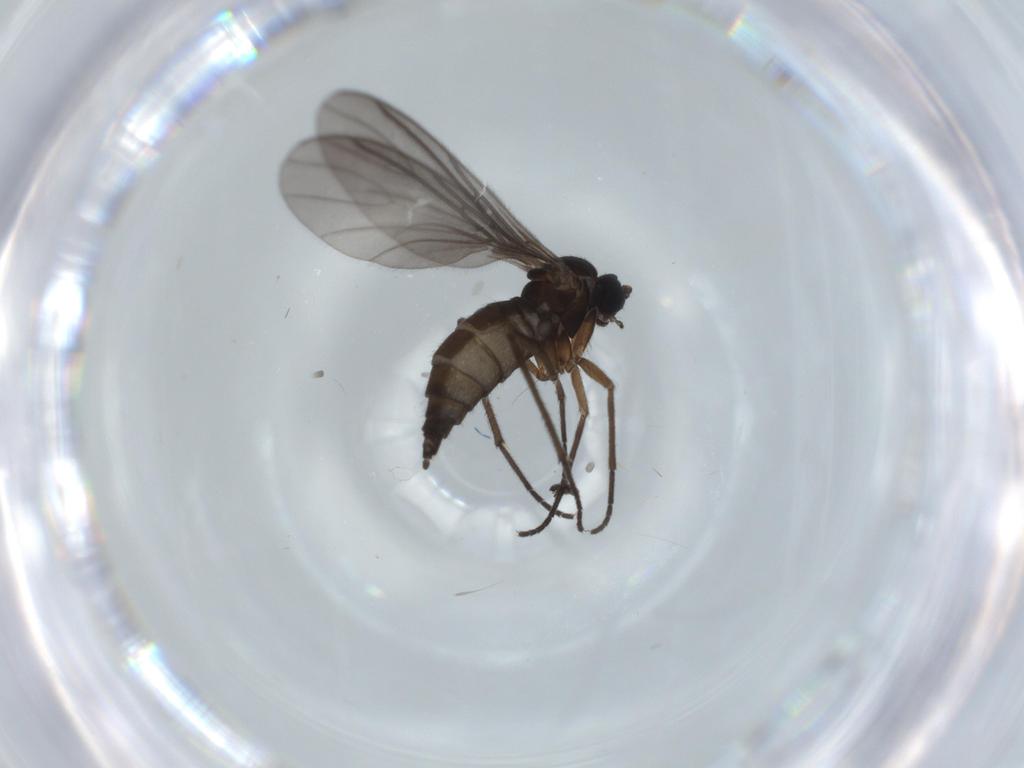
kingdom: Animalia
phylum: Arthropoda
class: Insecta
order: Diptera
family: Sciaridae
